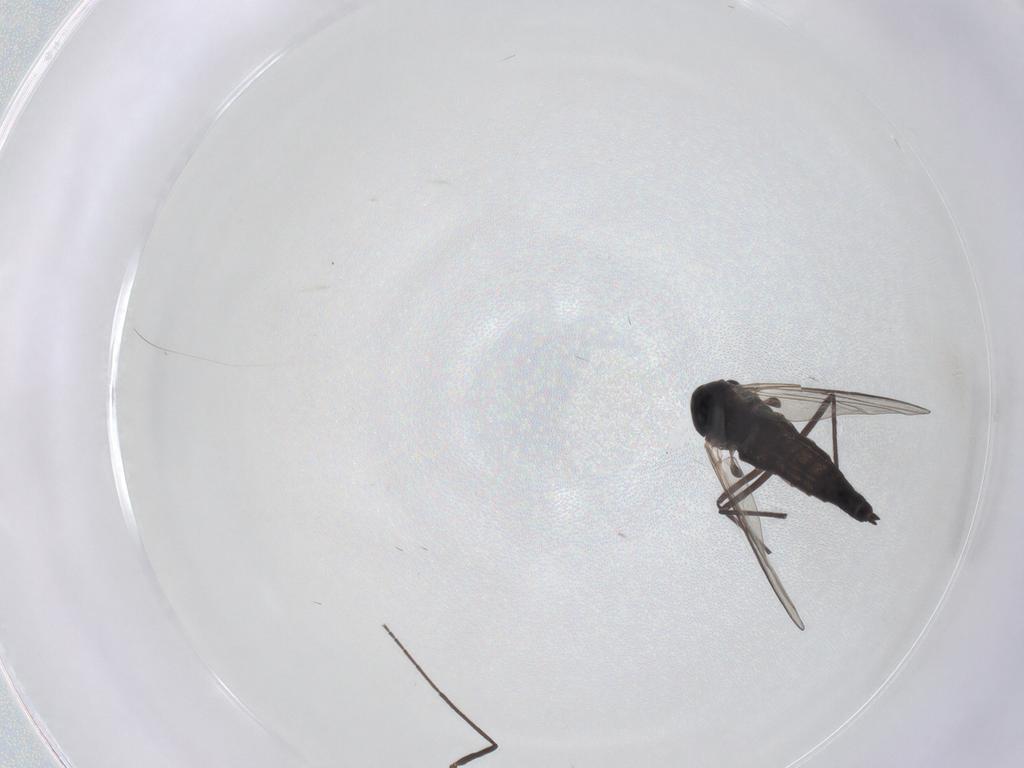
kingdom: Animalia
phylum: Arthropoda
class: Insecta
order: Diptera
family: Chironomidae
